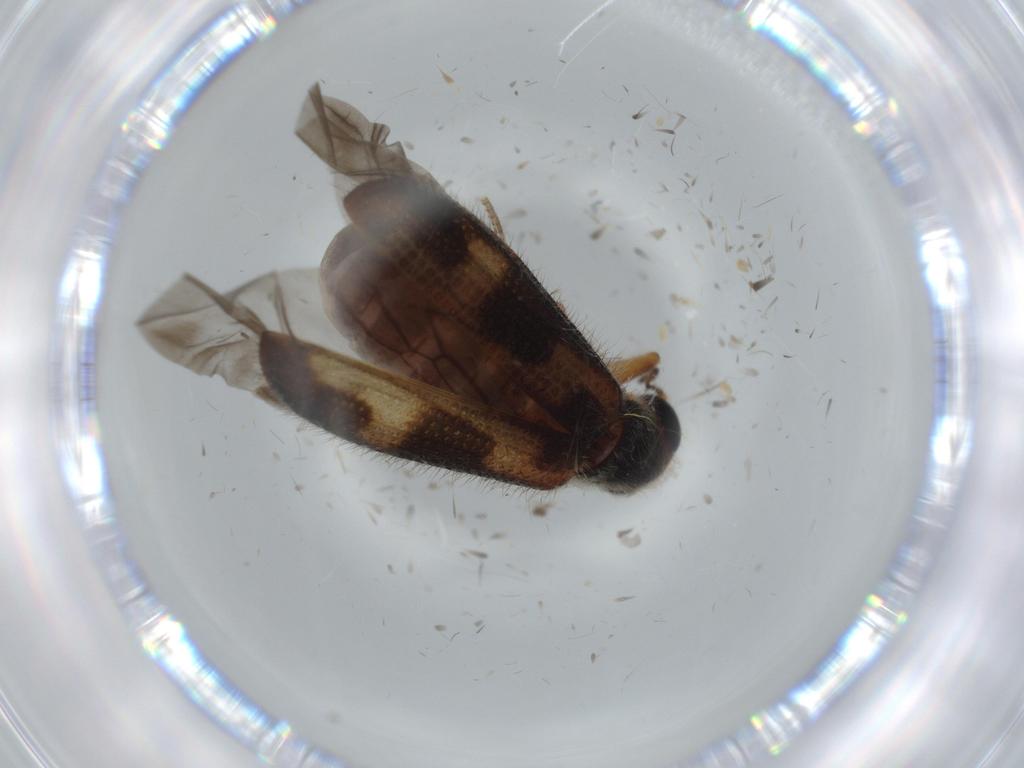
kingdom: Animalia
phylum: Arthropoda
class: Insecta
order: Coleoptera
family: Cleridae
